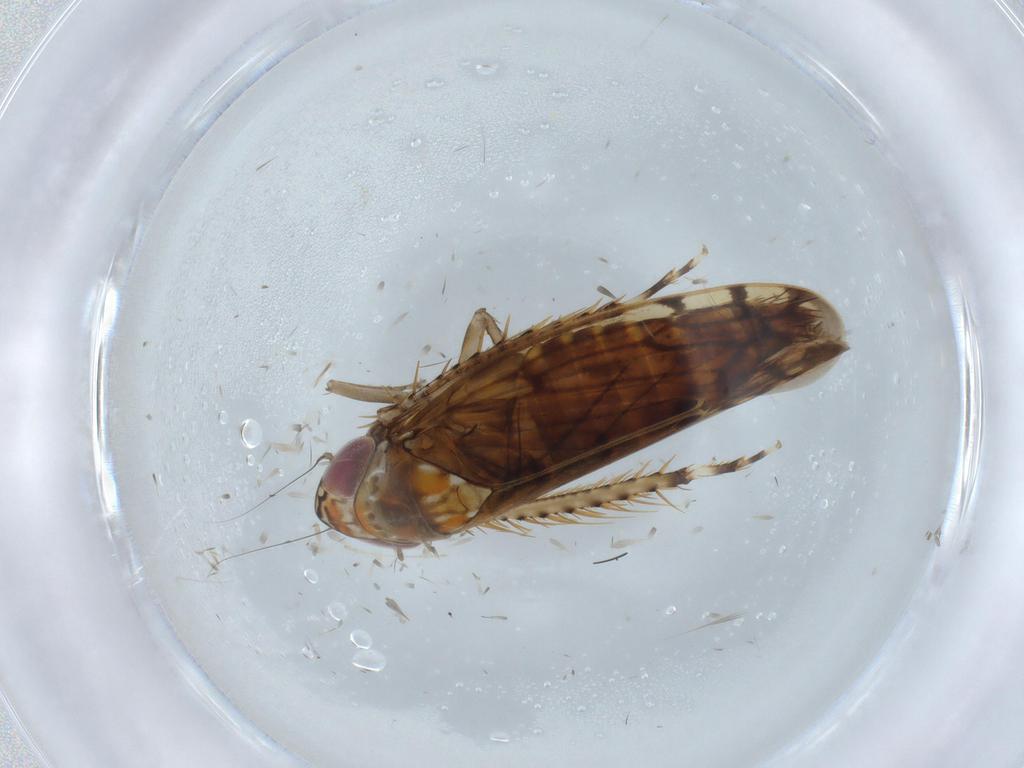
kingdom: Animalia
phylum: Arthropoda
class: Insecta
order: Hemiptera
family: Cicadellidae
